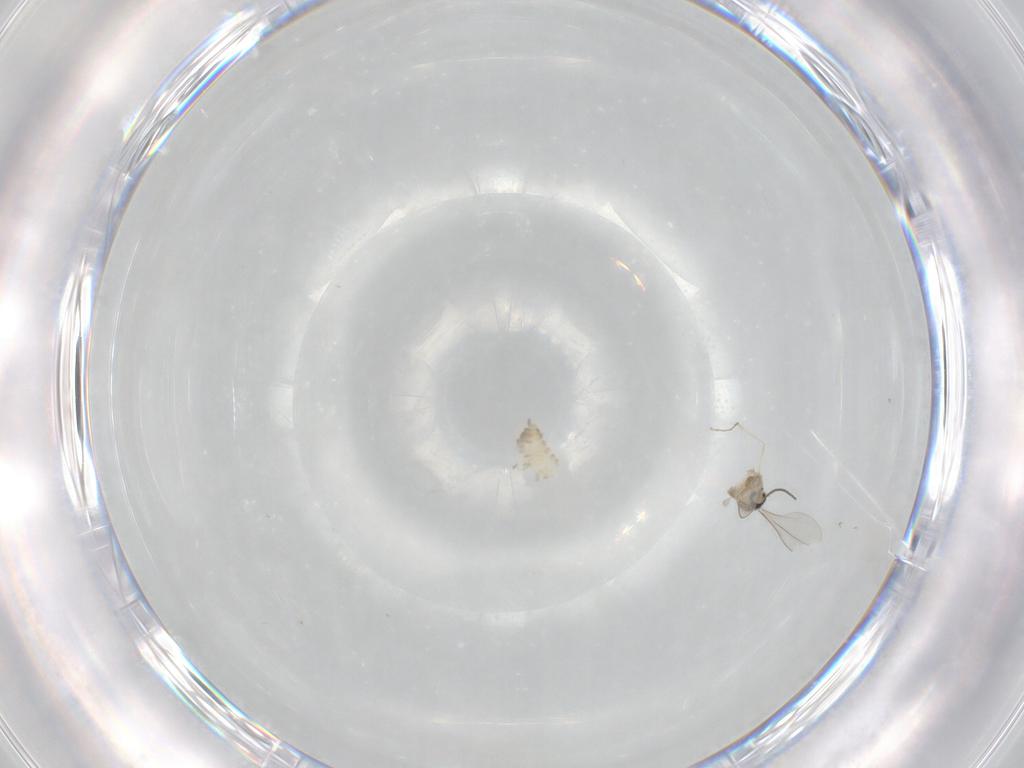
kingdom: Animalia
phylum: Arthropoda
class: Insecta
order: Diptera
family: Cecidomyiidae
